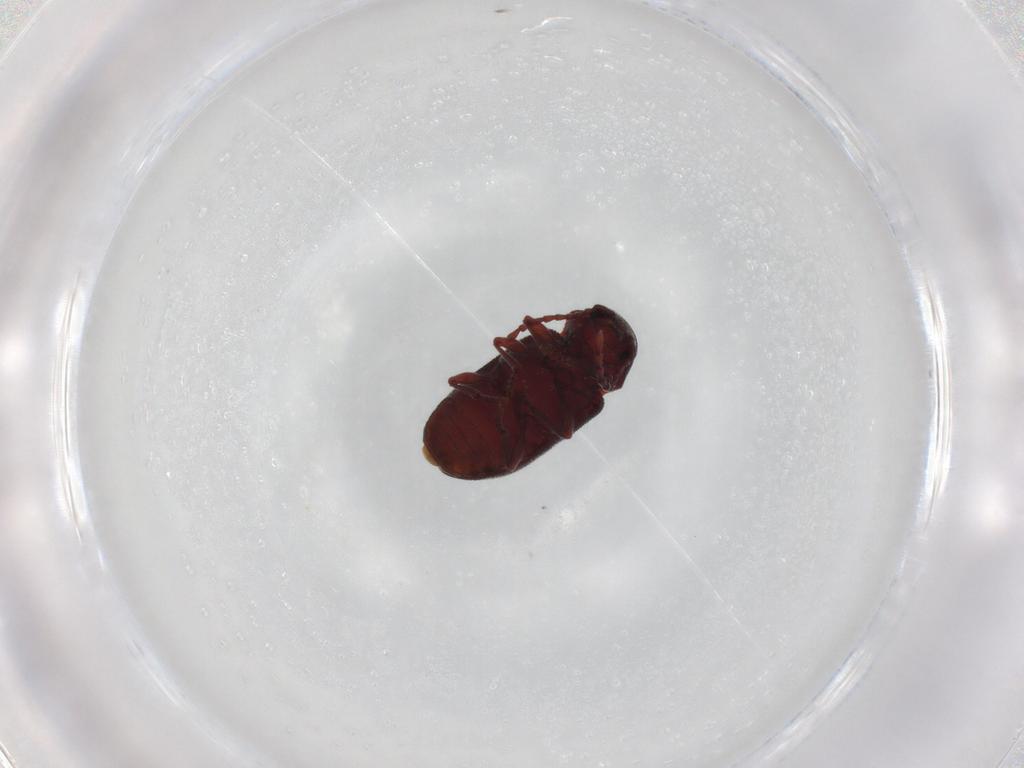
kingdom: Animalia
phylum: Arthropoda
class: Insecta
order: Coleoptera
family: Ptinidae
